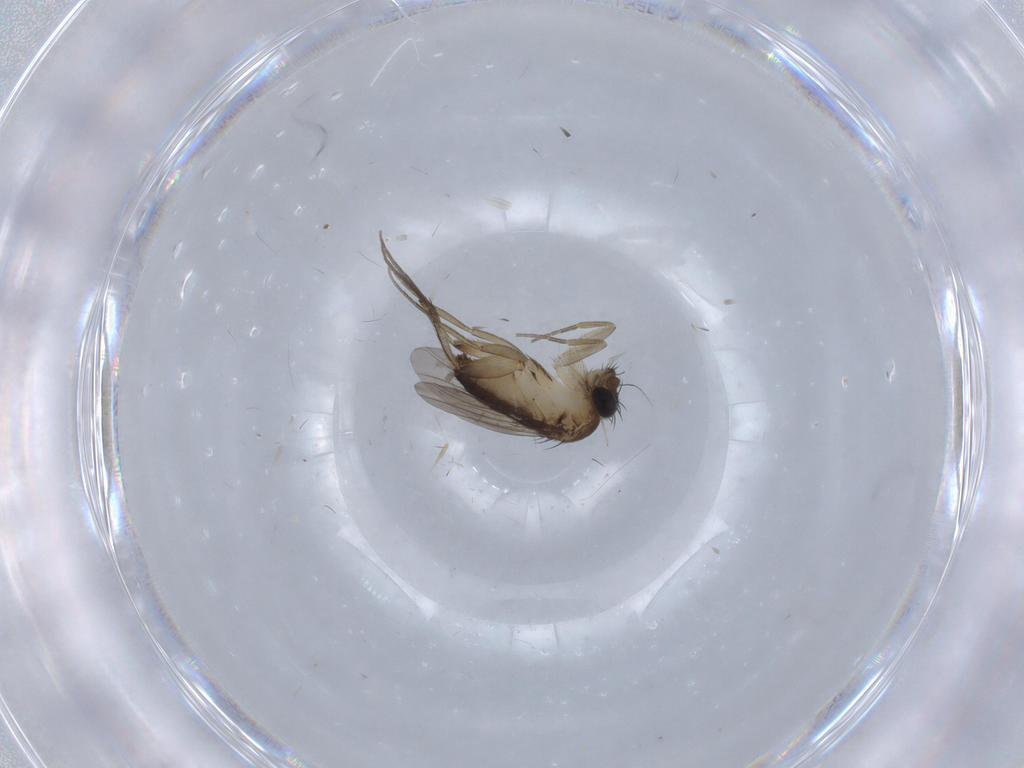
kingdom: Animalia
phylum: Arthropoda
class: Insecta
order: Diptera
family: Phoridae
